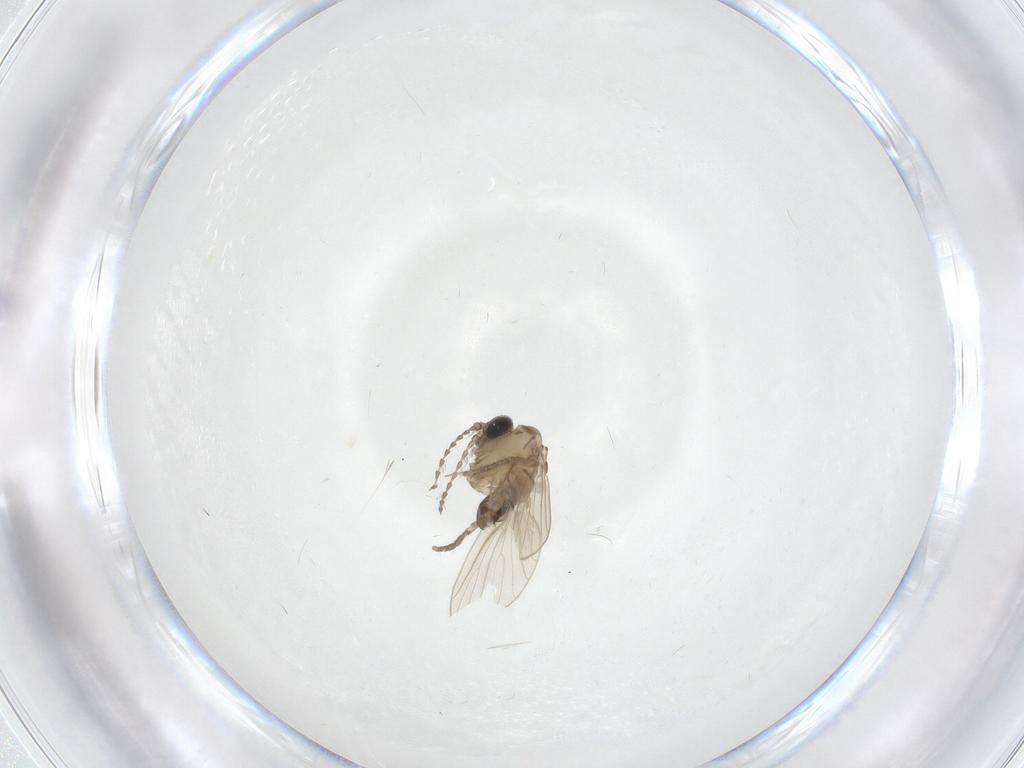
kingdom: Animalia
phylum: Arthropoda
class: Insecta
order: Diptera
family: Psychodidae
